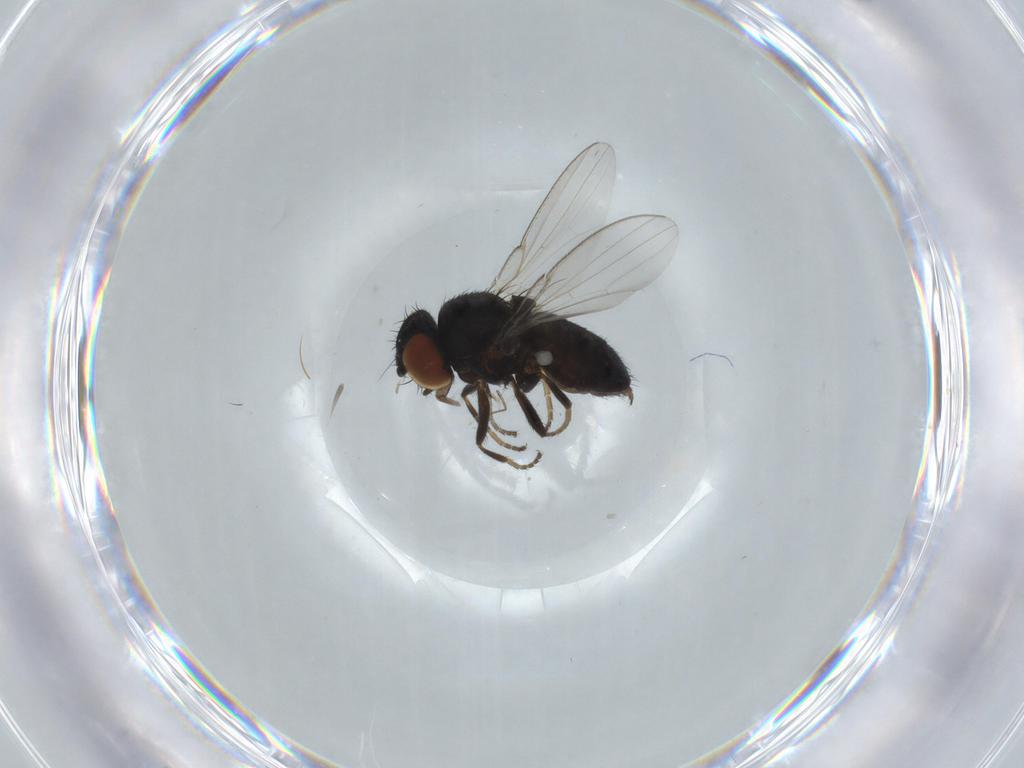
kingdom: Animalia
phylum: Arthropoda
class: Insecta
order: Diptera
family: Milichiidae
